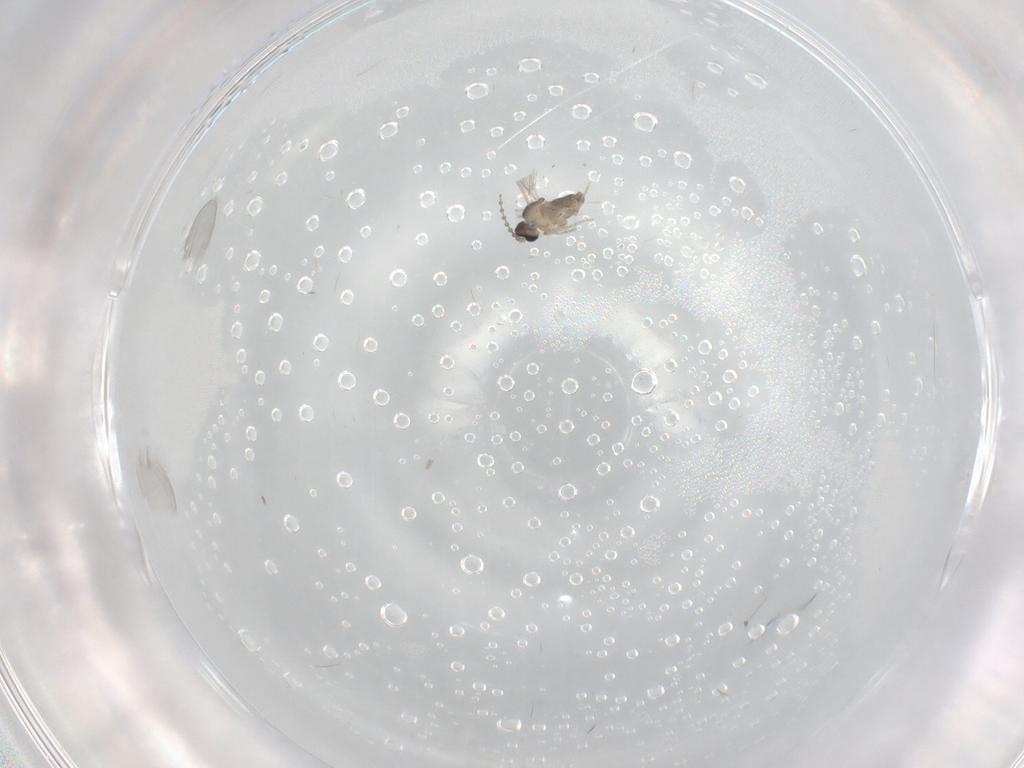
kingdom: Animalia
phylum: Arthropoda
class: Insecta
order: Diptera
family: Cecidomyiidae
